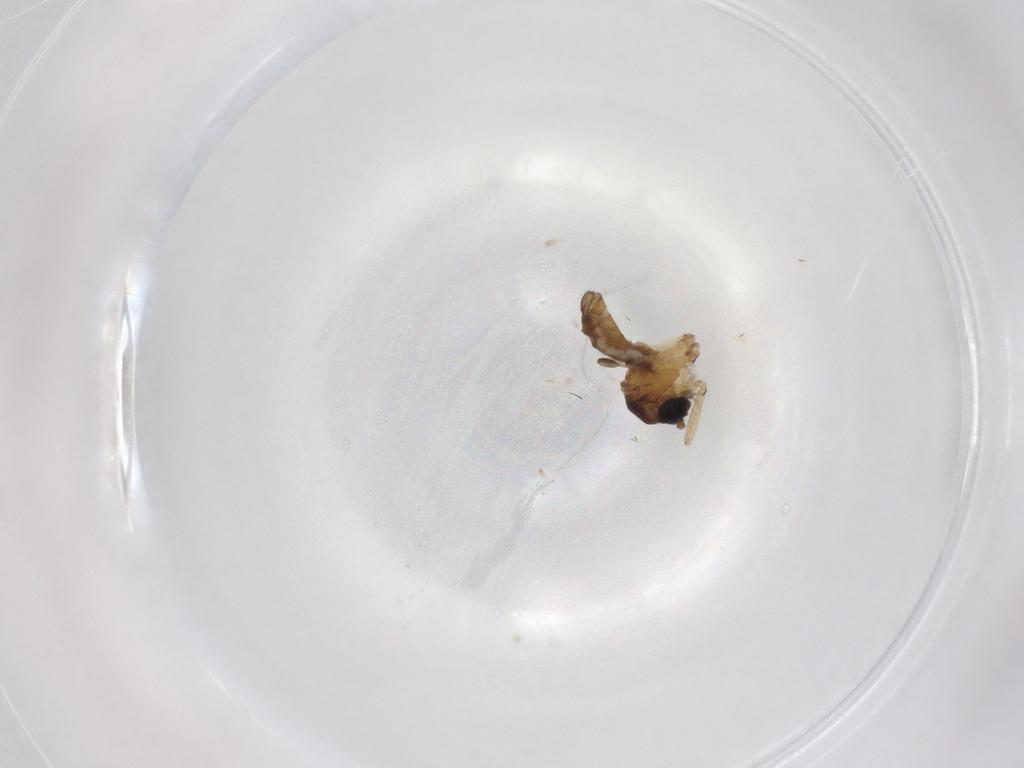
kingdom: Animalia
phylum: Arthropoda
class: Insecta
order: Diptera
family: Sciaridae
